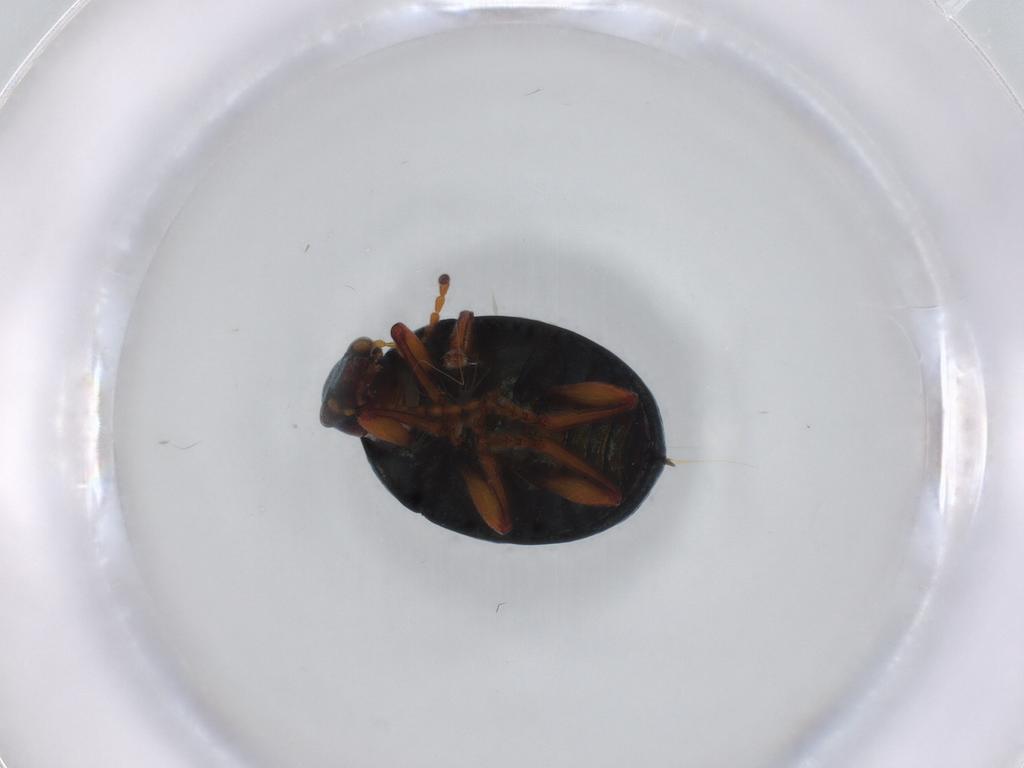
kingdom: Animalia
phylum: Arthropoda
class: Insecta
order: Coleoptera
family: Chrysomelidae
